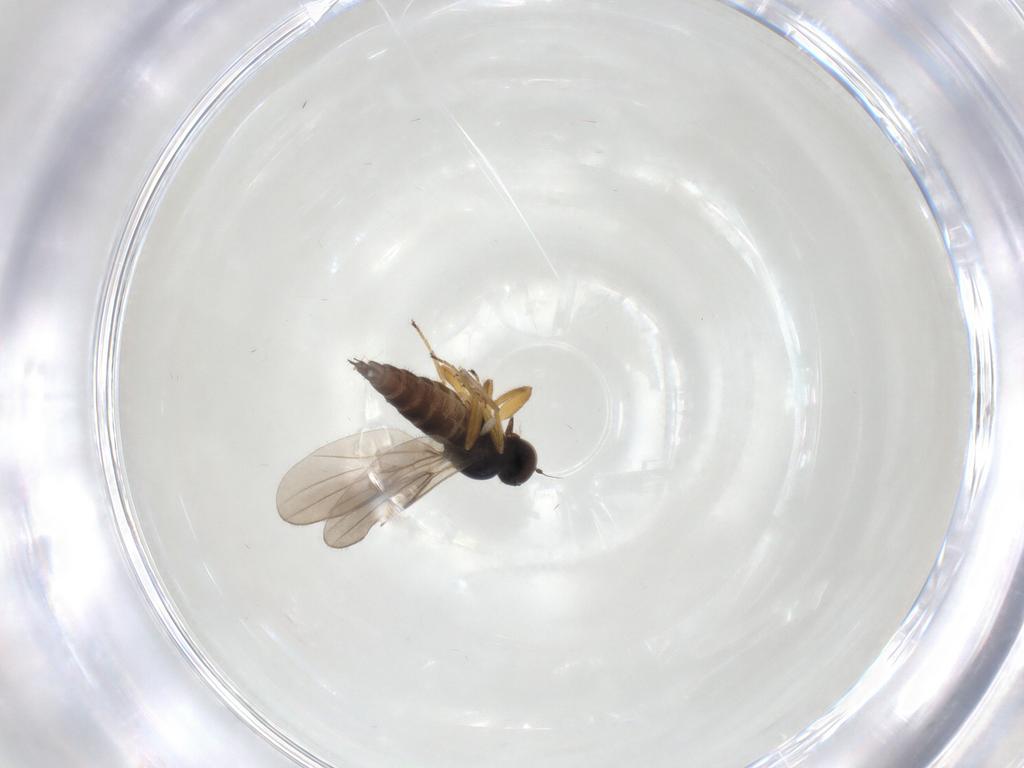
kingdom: Animalia
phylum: Arthropoda
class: Insecta
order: Diptera
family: Hybotidae
